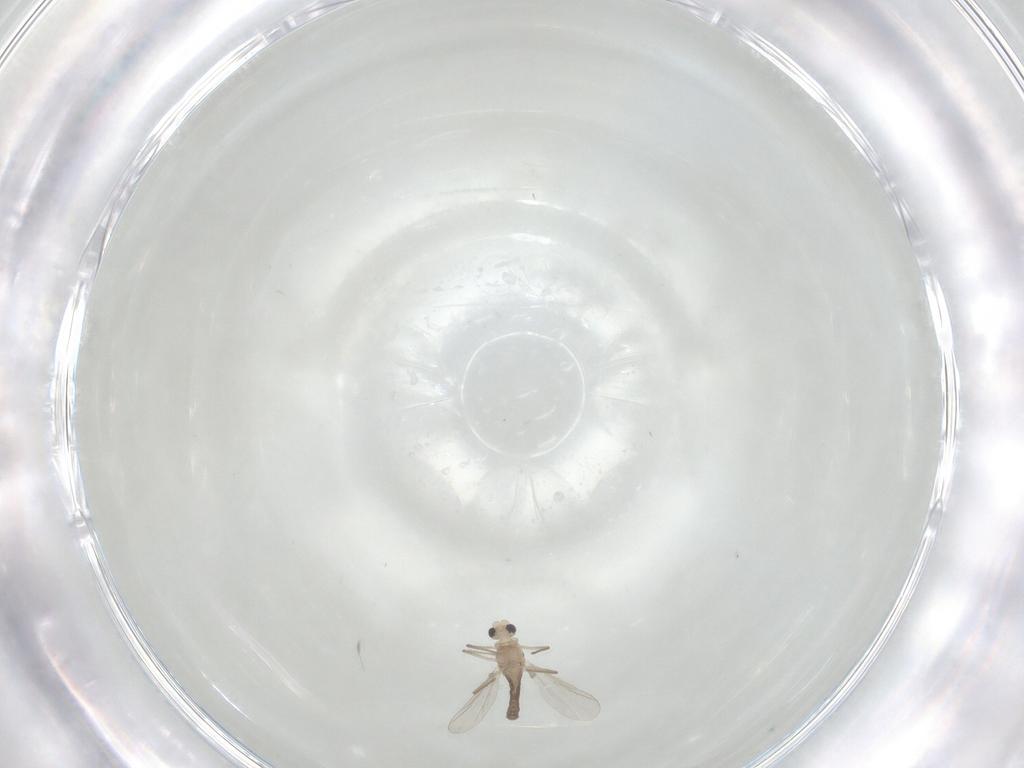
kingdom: Animalia
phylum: Arthropoda
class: Insecta
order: Diptera
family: Chironomidae
